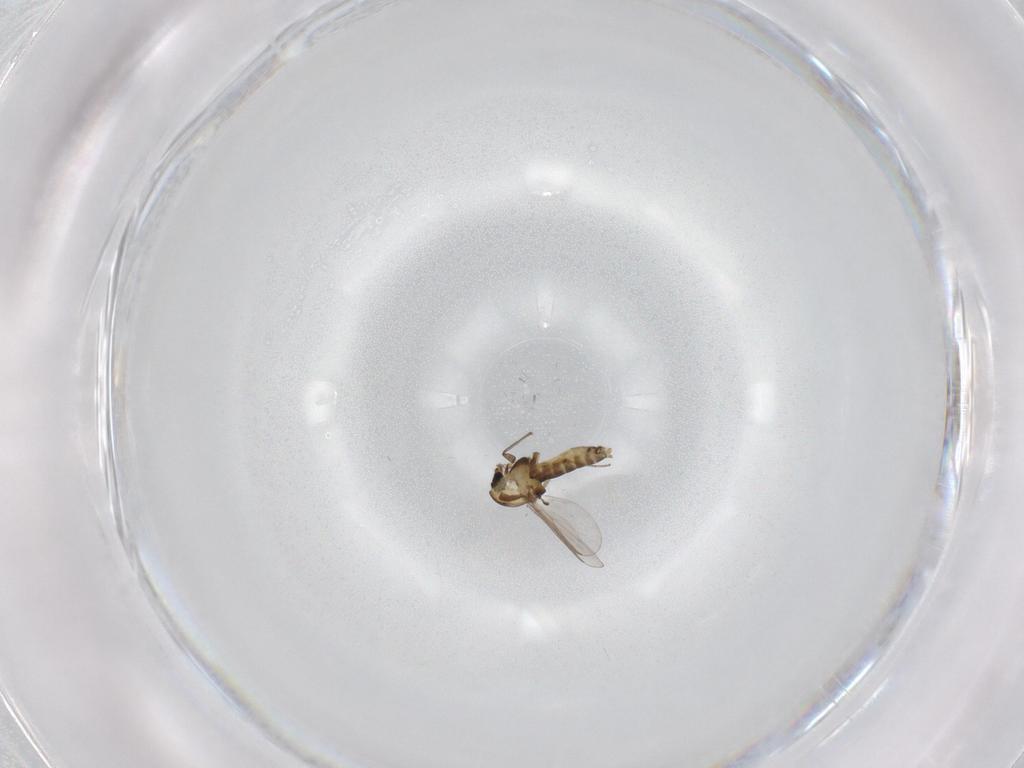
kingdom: Animalia
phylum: Arthropoda
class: Insecta
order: Diptera
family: Chironomidae
